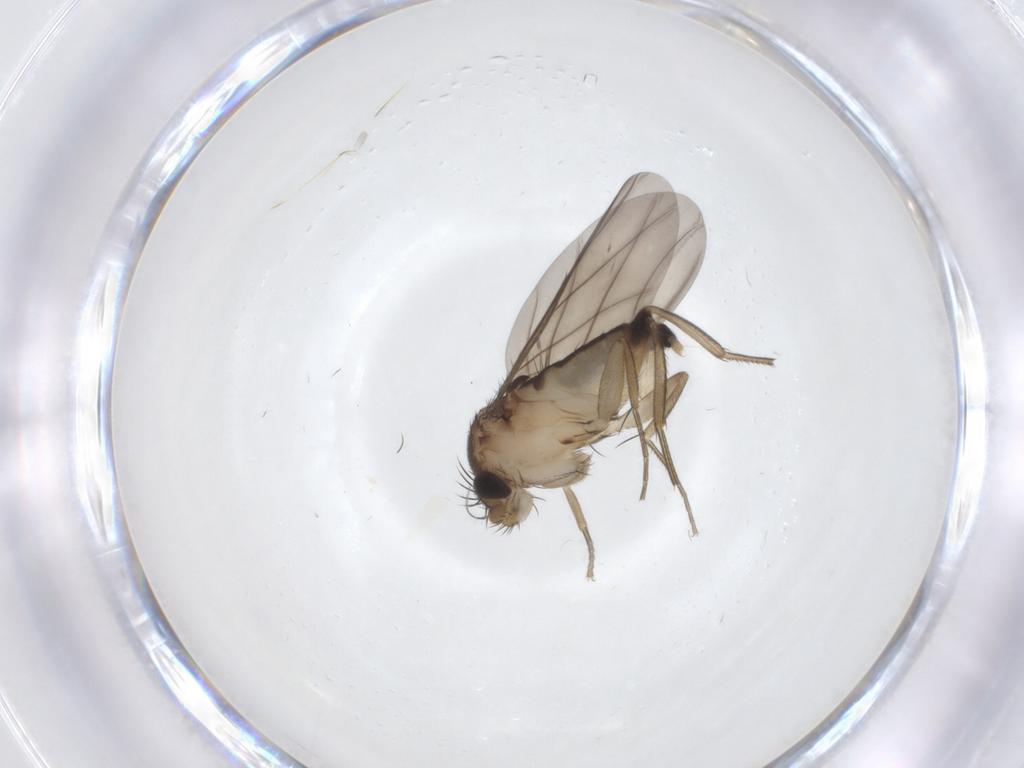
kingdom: Animalia
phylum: Arthropoda
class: Insecta
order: Diptera
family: Phoridae
